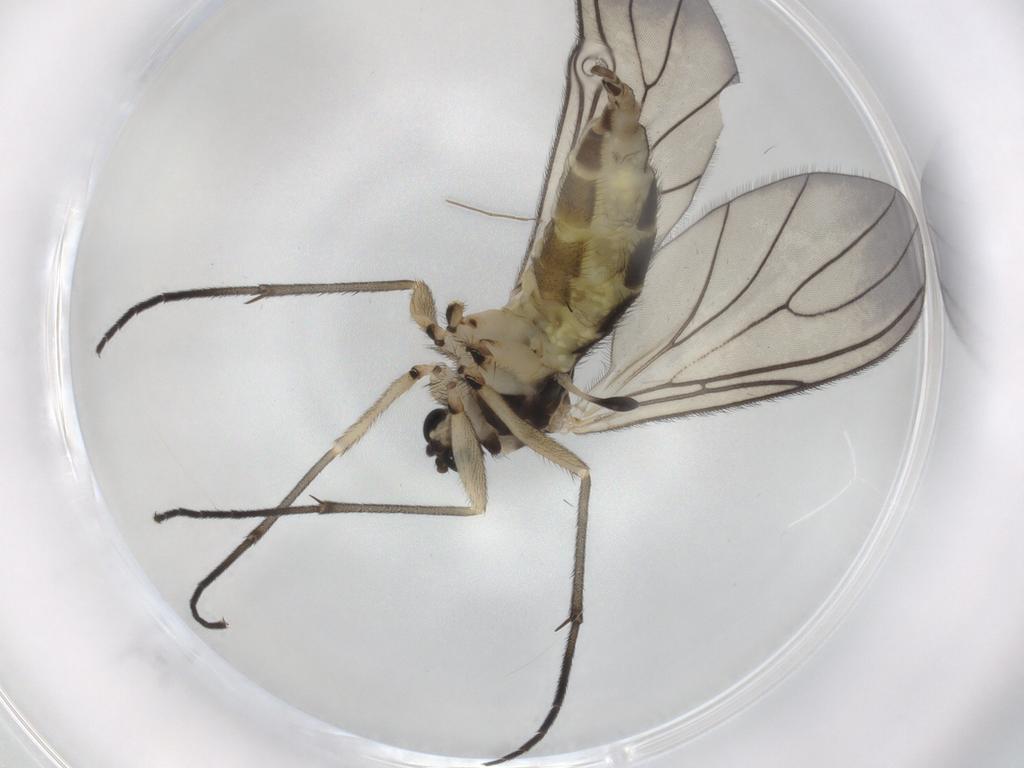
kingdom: Animalia
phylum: Arthropoda
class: Insecta
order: Diptera
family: Sciaridae
